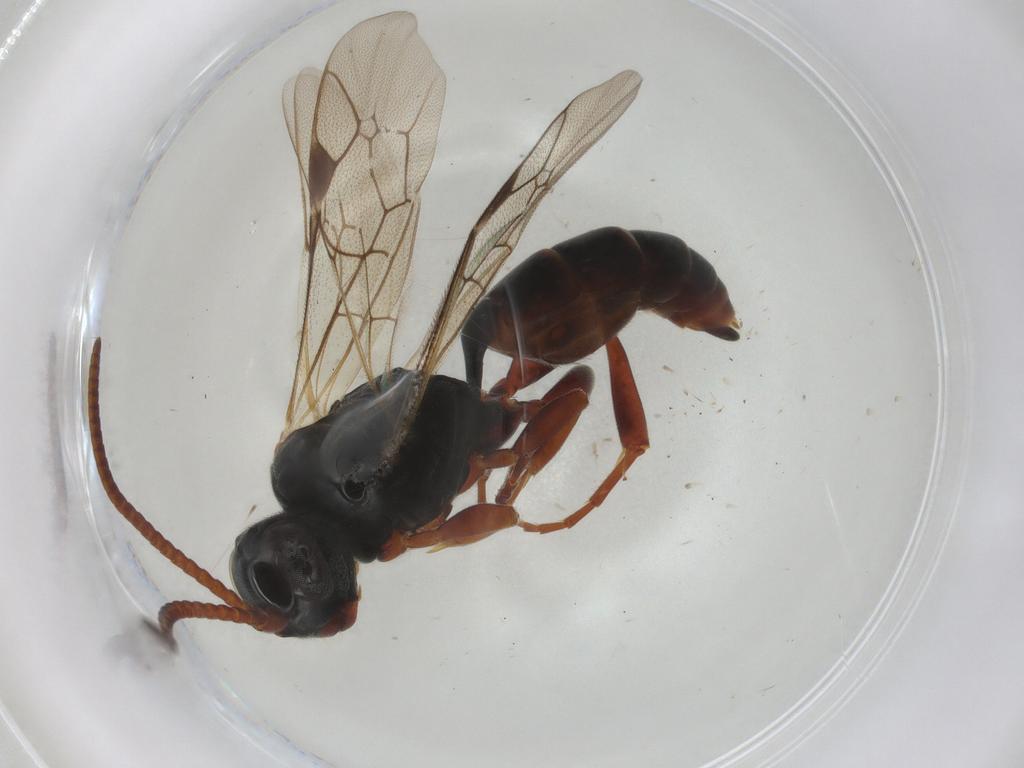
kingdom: Animalia
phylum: Arthropoda
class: Insecta
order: Hymenoptera
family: Ichneumonidae
